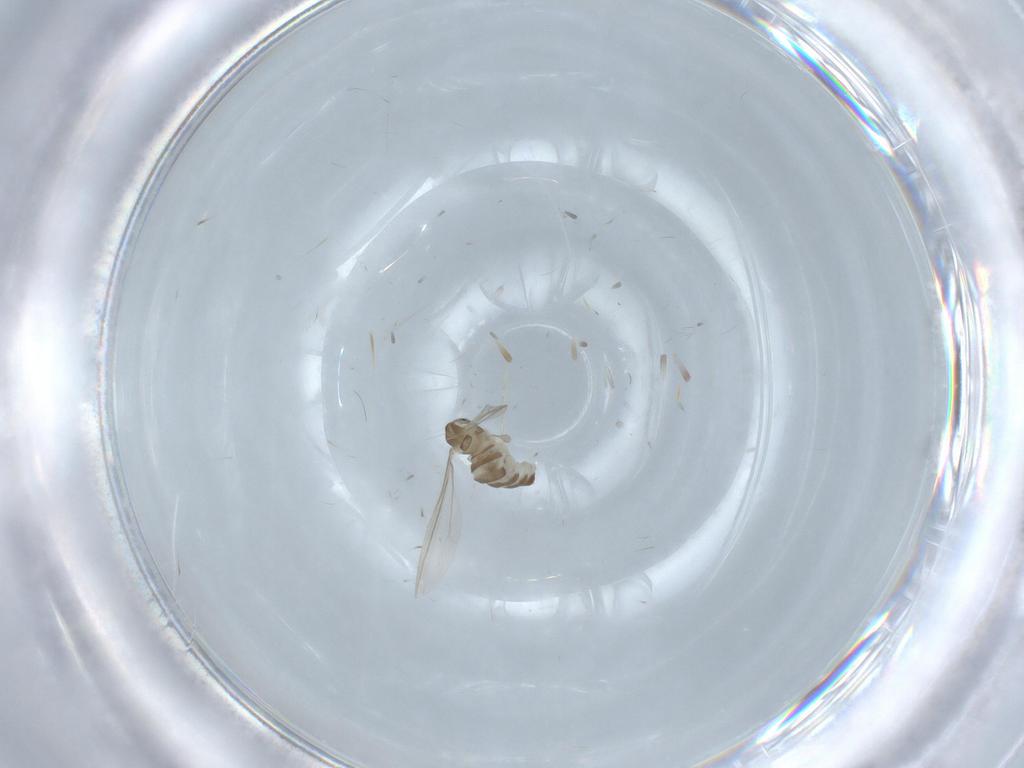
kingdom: Animalia
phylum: Arthropoda
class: Insecta
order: Diptera
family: Cecidomyiidae
